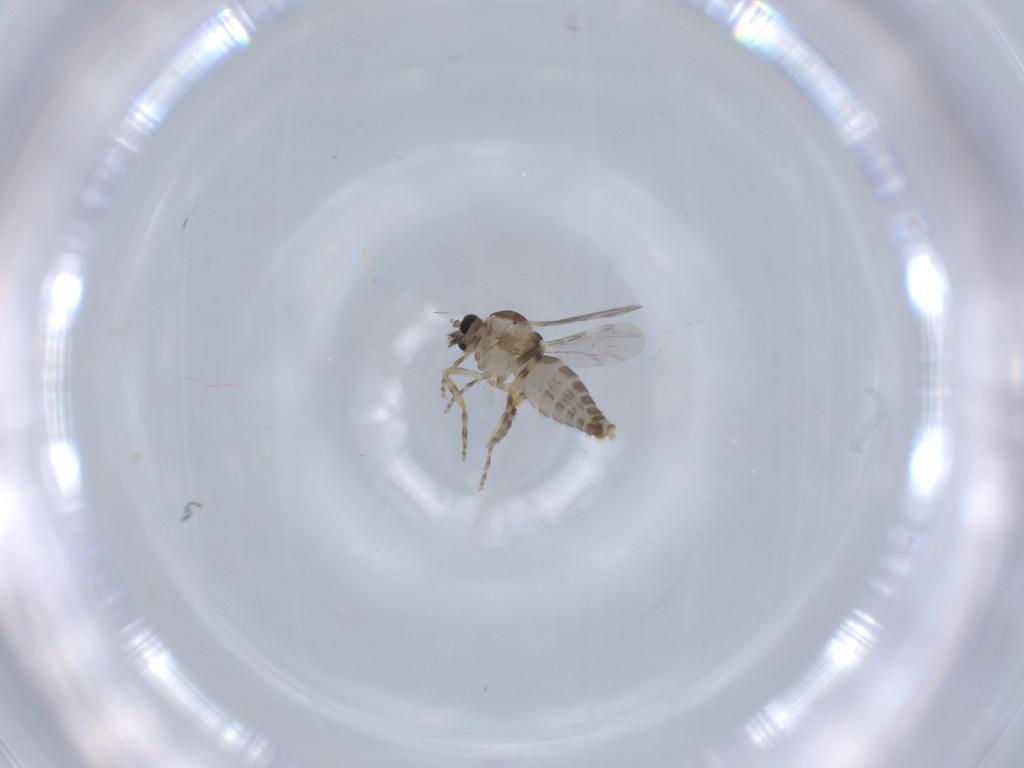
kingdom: Animalia
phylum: Arthropoda
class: Insecta
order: Diptera
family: Ceratopogonidae
